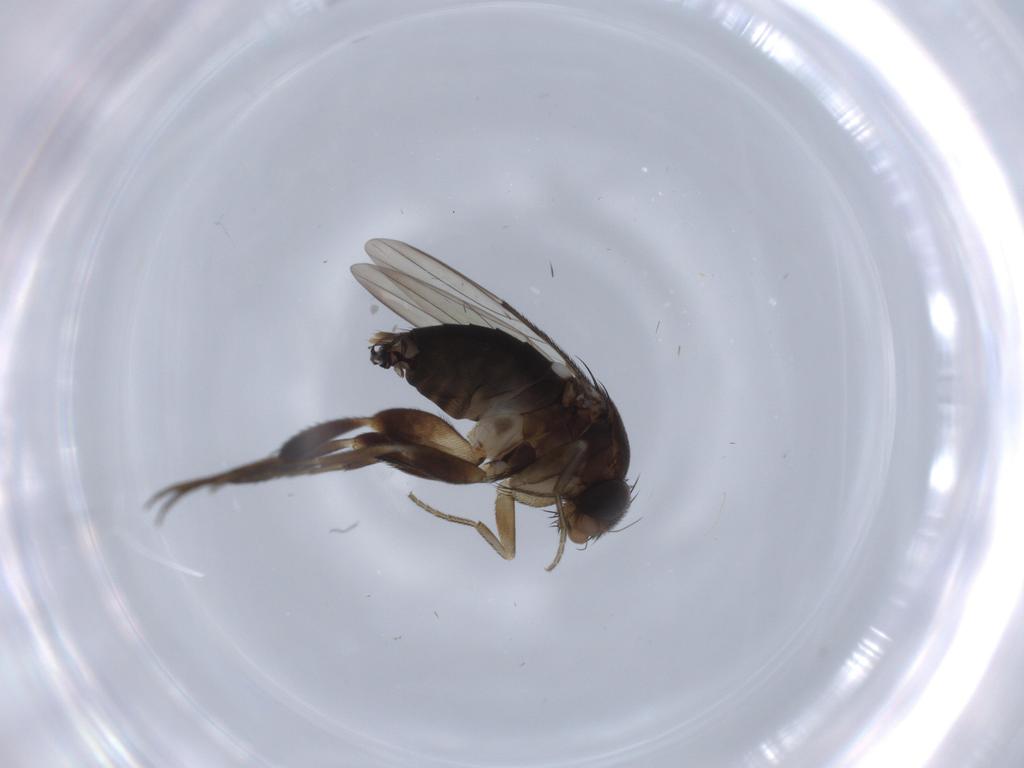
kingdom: Animalia
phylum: Arthropoda
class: Insecta
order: Diptera
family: Phoridae
